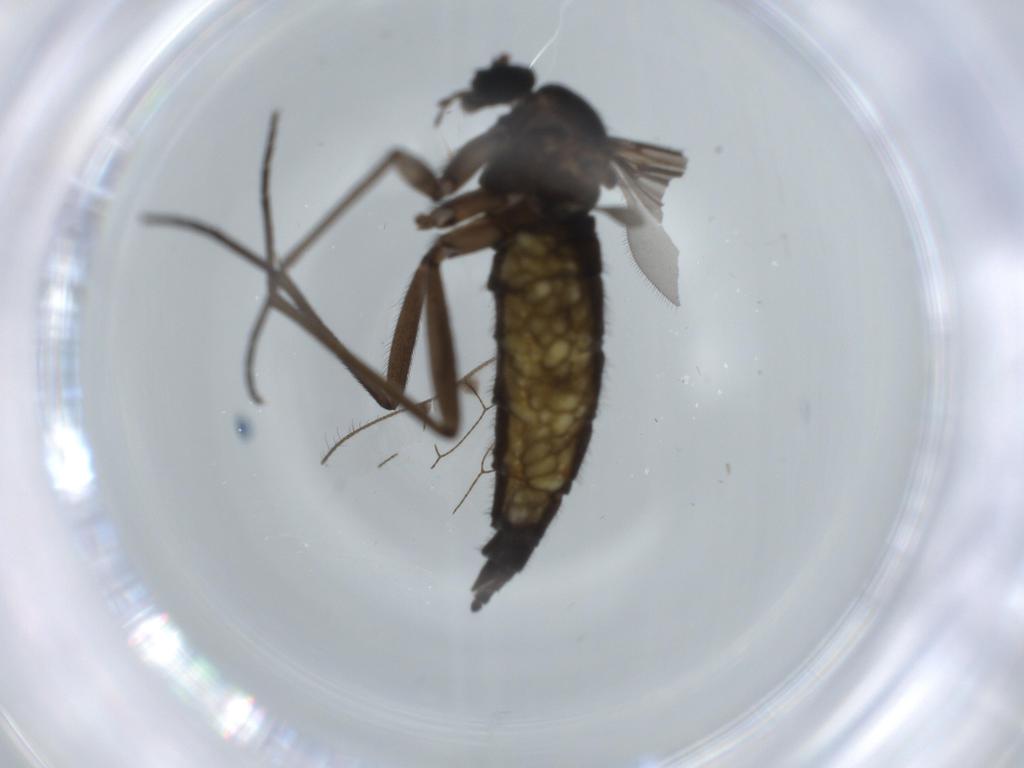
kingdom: Animalia
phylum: Arthropoda
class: Insecta
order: Diptera
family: Sciaridae
